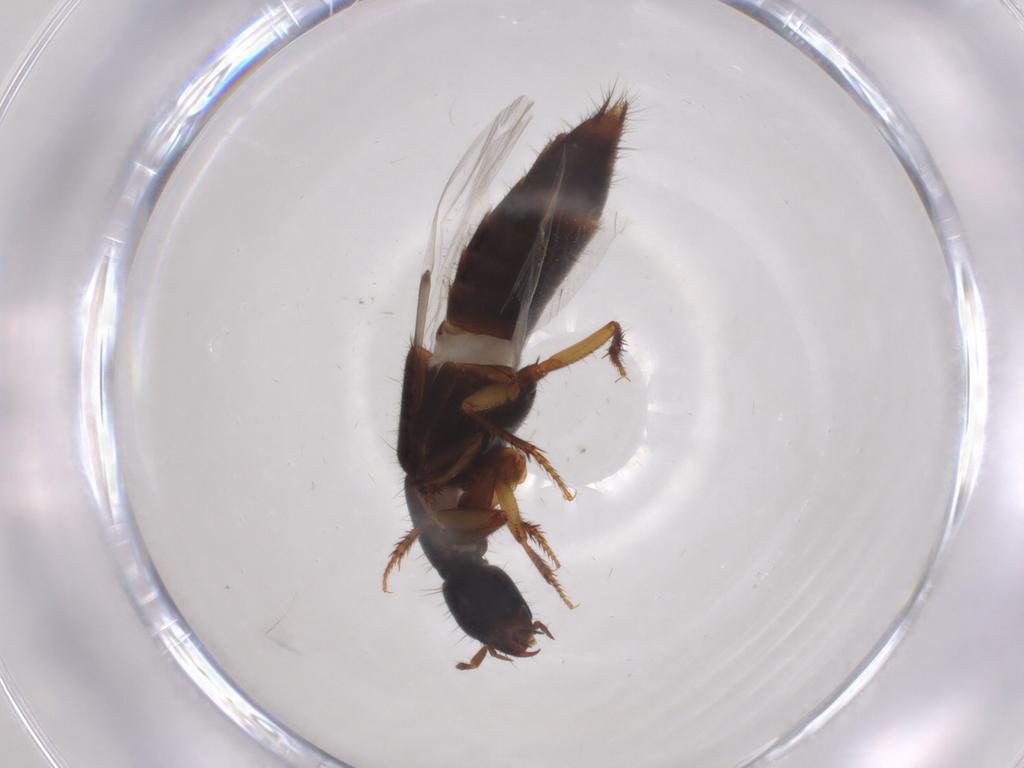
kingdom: Animalia
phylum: Arthropoda
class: Insecta
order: Coleoptera
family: Staphylinidae
